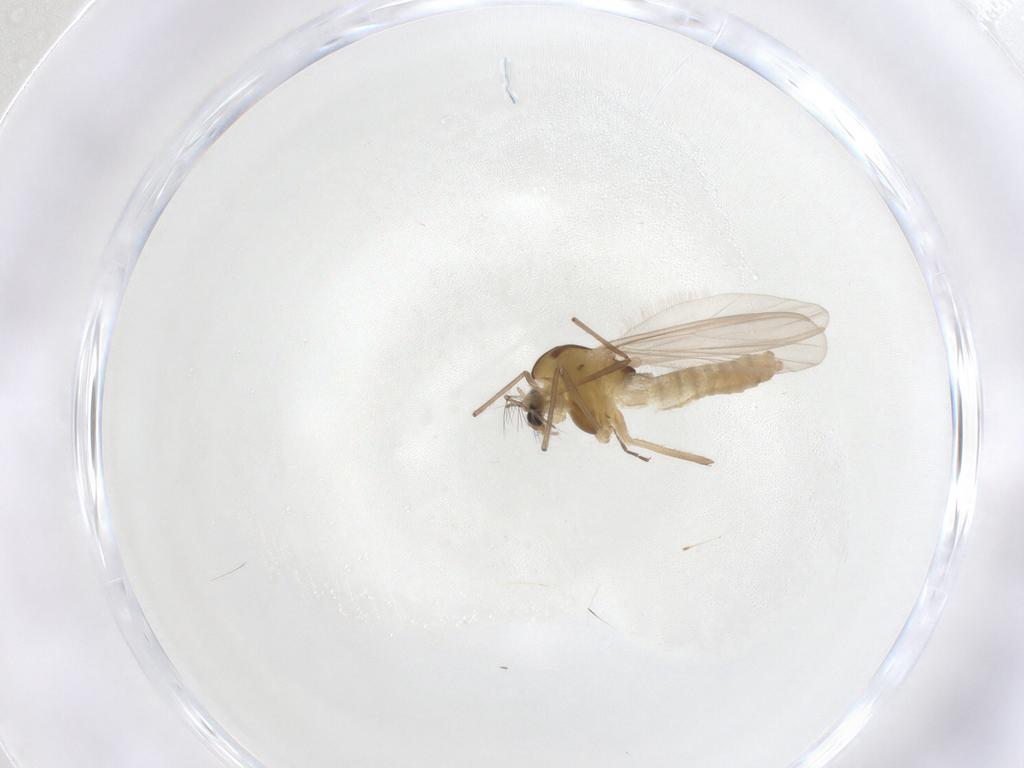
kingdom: Animalia
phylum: Arthropoda
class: Insecta
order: Diptera
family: Chironomidae
